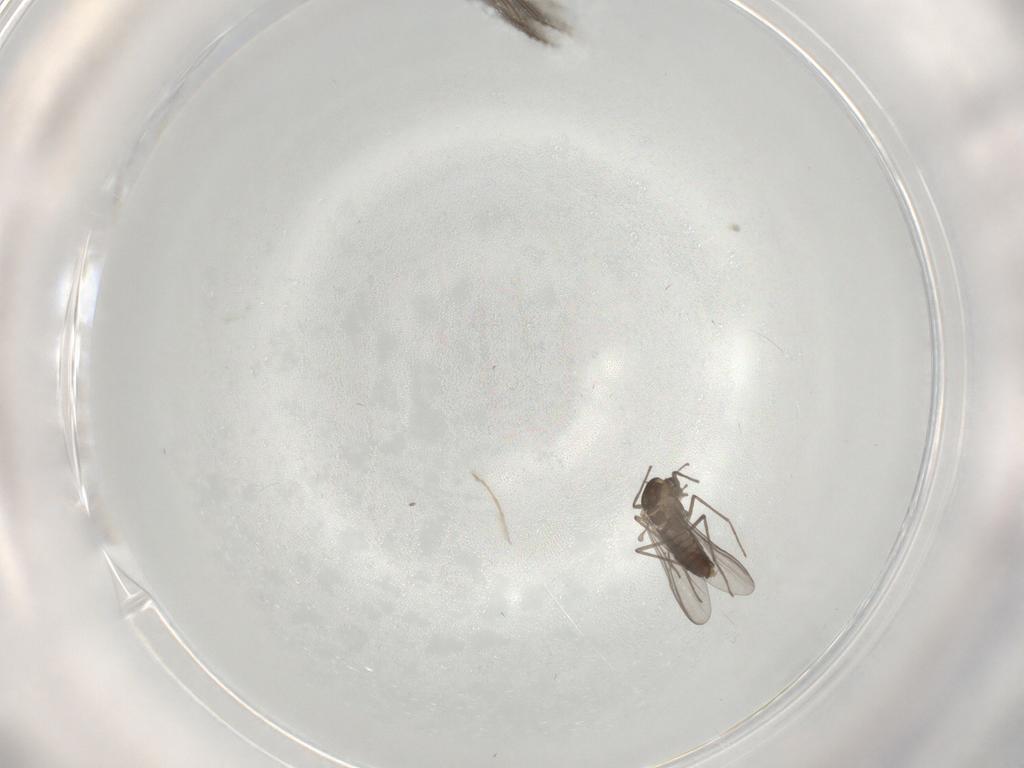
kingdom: Animalia
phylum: Arthropoda
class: Insecta
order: Diptera
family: Chironomidae
